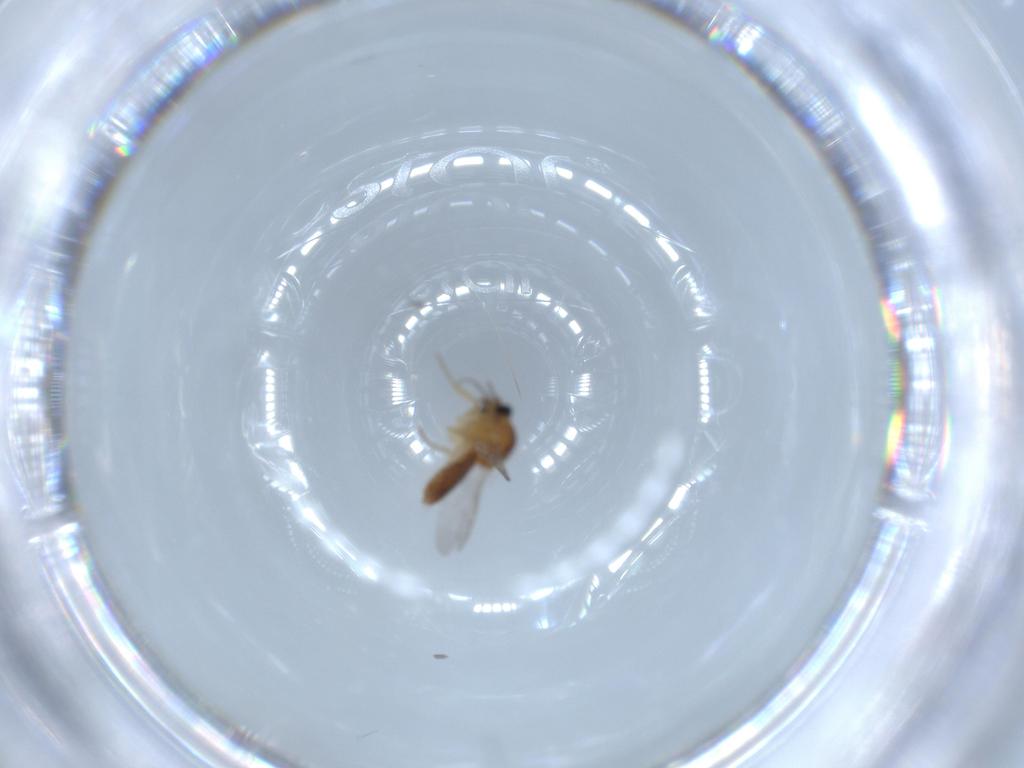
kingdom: Animalia
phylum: Arthropoda
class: Insecta
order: Diptera
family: Ceratopogonidae
